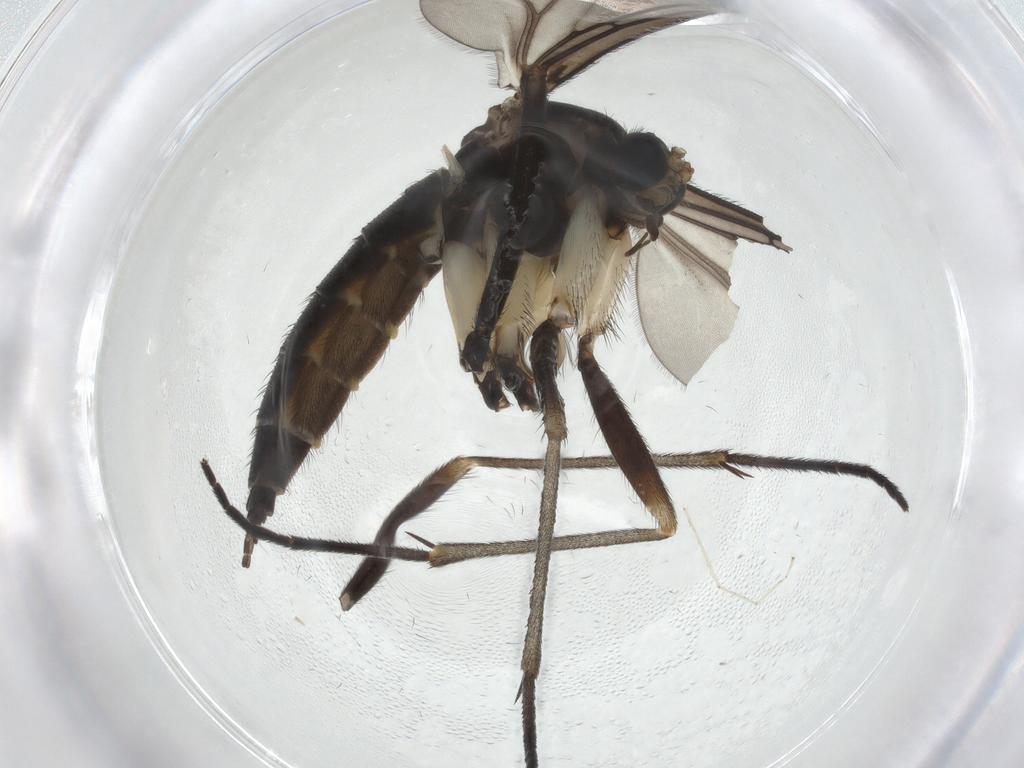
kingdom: Animalia
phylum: Arthropoda
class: Insecta
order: Diptera
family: Sciaridae
